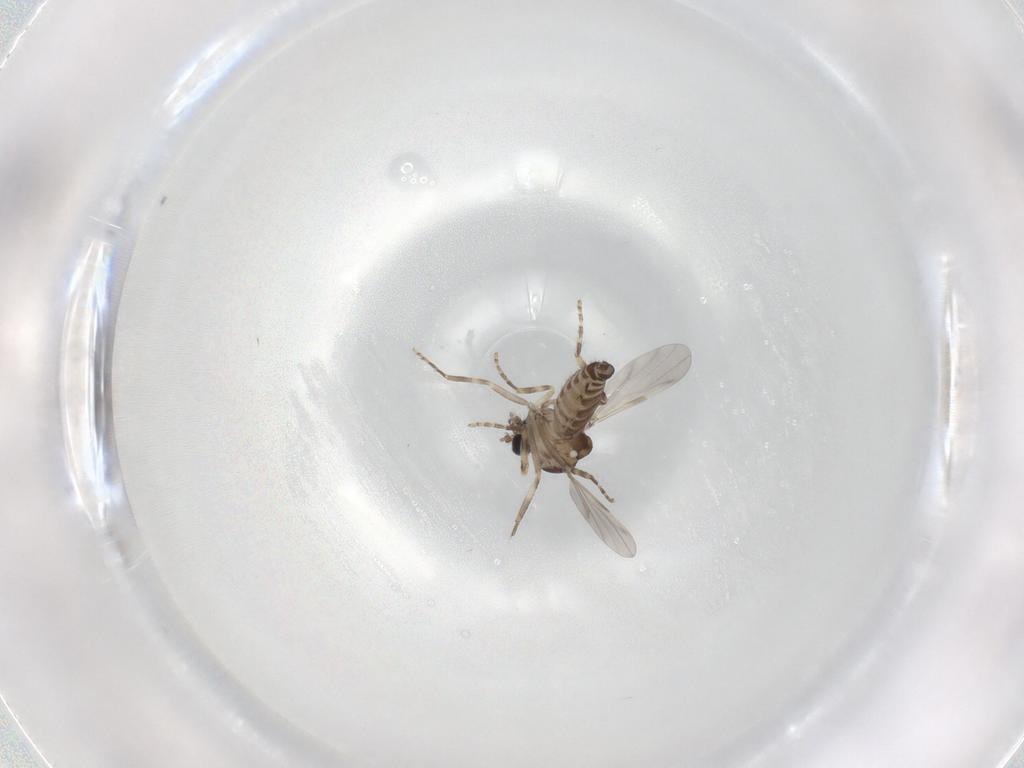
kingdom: Animalia
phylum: Arthropoda
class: Insecta
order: Diptera
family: Ceratopogonidae
